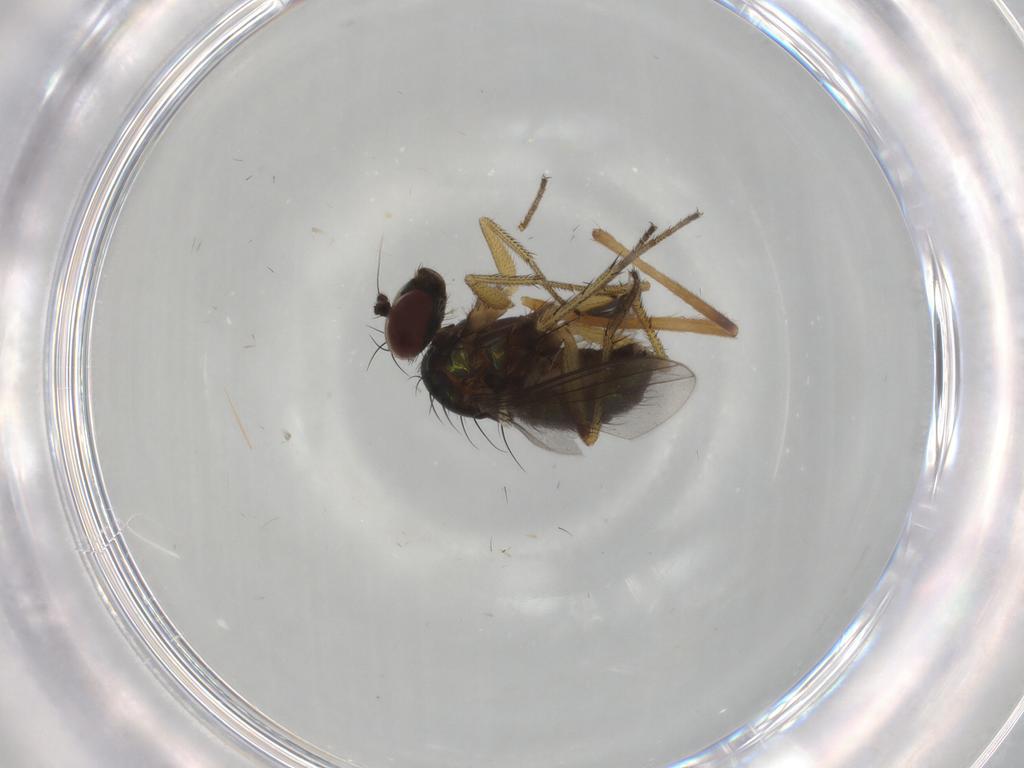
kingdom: Animalia
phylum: Arthropoda
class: Insecta
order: Diptera
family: Dolichopodidae
